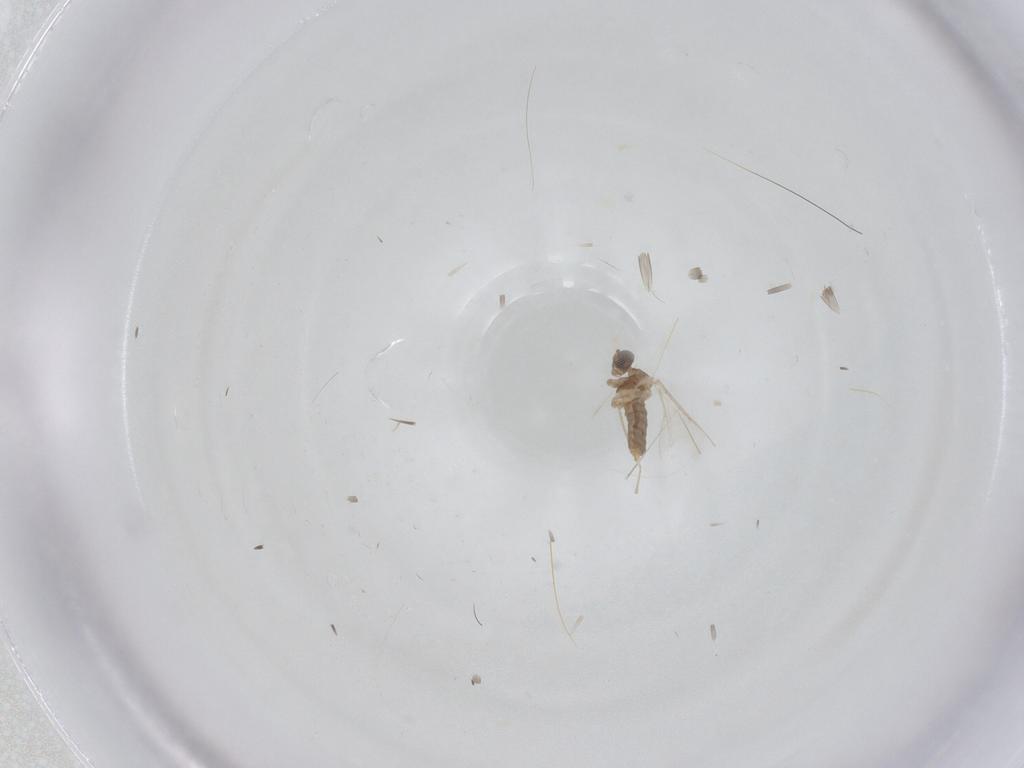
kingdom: Animalia
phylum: Arthropoda
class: Insecta
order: Diptera
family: Cecidomyiidae
